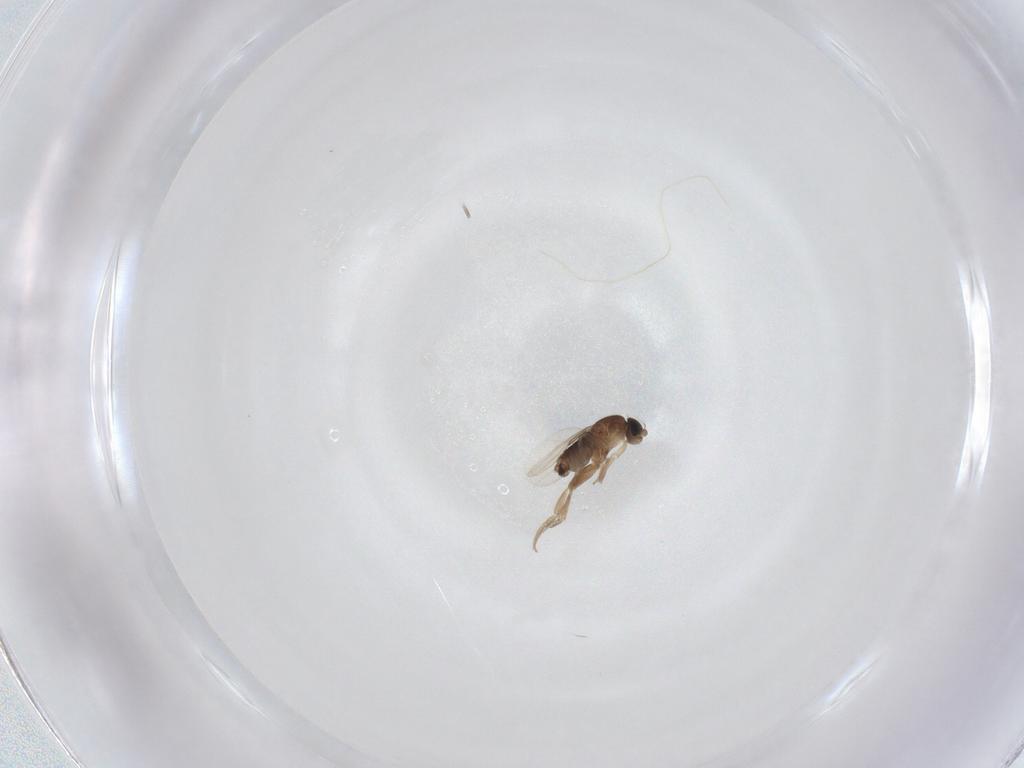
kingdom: Animalia
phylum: Arthropoda
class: Insecta
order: Diptera
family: Phoridae
